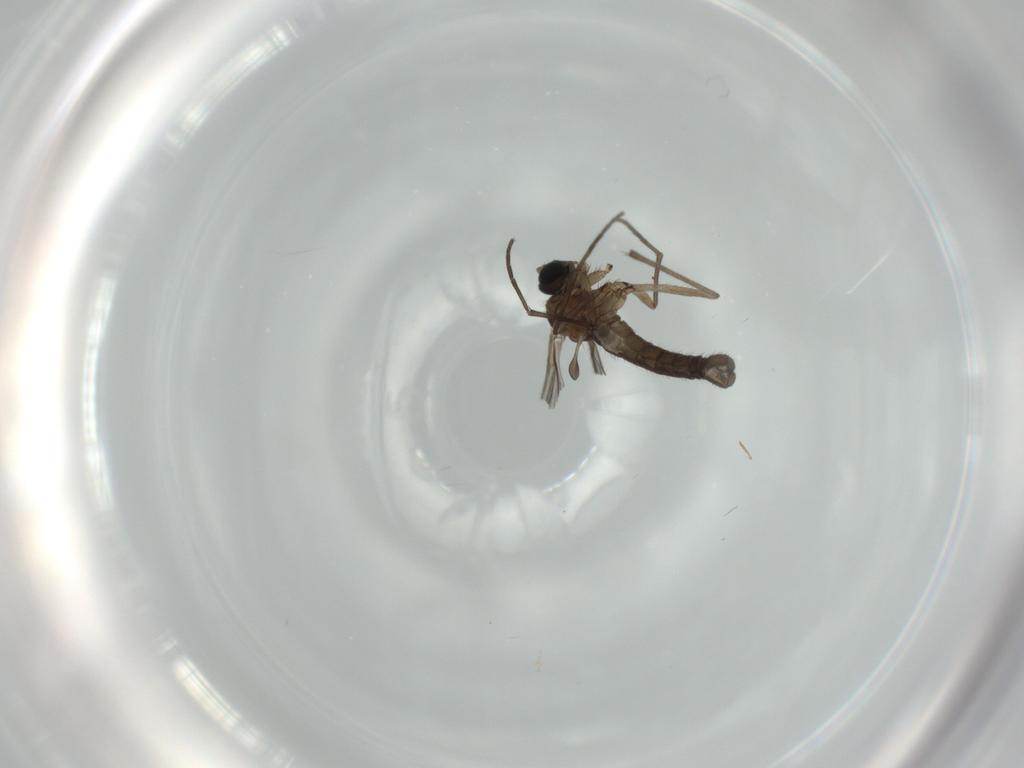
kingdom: Animalia
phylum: Arthropoda
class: Insecta
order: Diptera
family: Sciaridae
